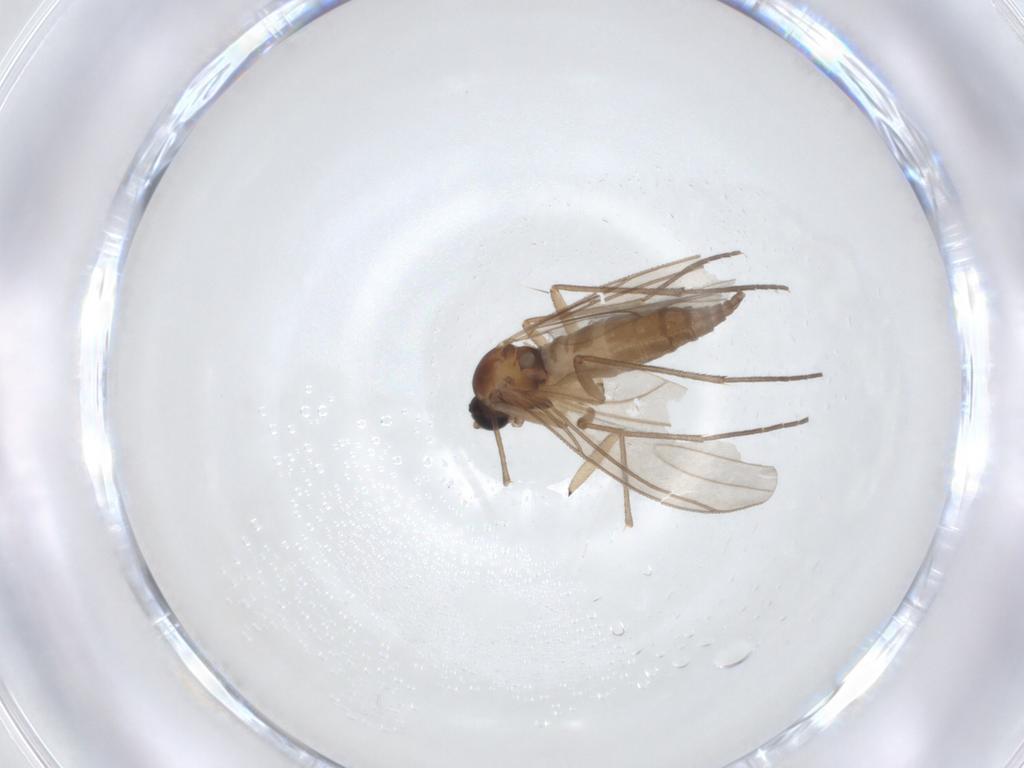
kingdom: Animalia
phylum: Arthropoda
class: Insecta
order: Diptera
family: Sciaridae
